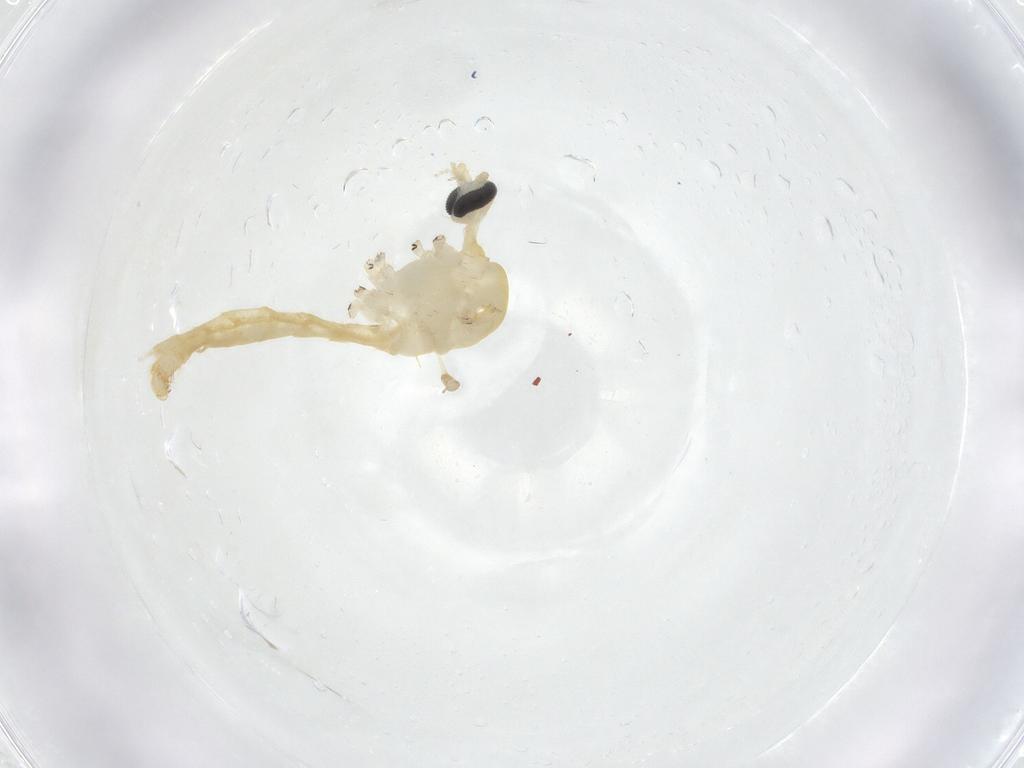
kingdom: Animalia
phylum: Arthropoda
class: Insecta
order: Diptera
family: Limoniidae
